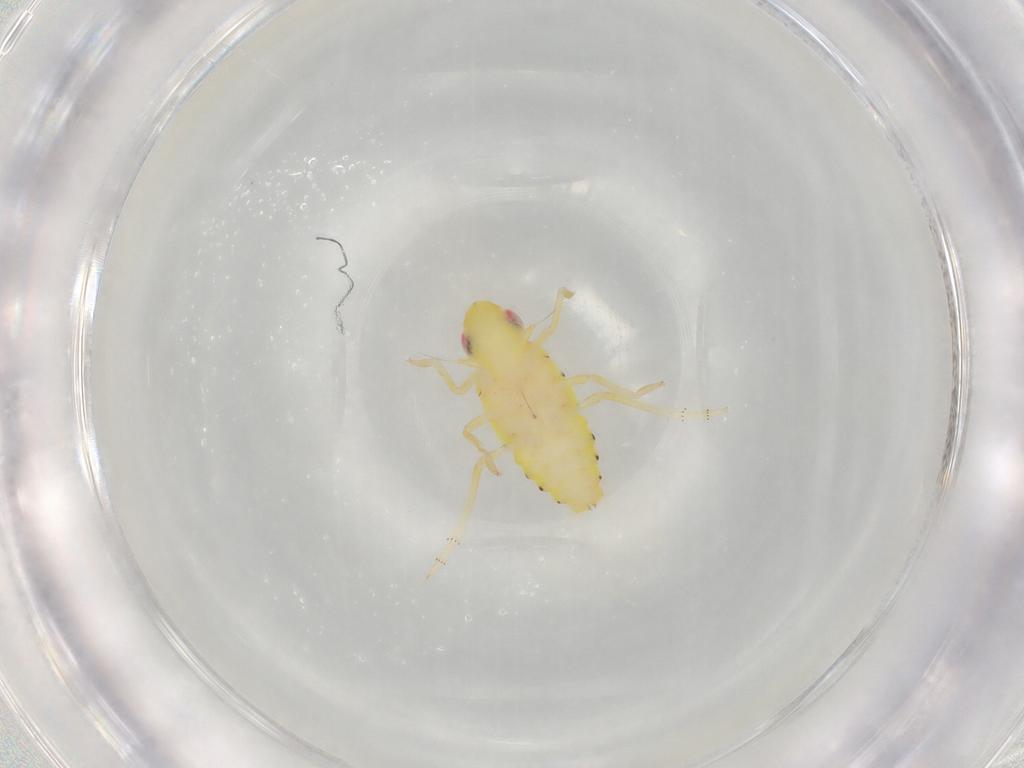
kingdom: Animalia
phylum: Arthropoda
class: Insecta
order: Hemiptera
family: Tropiduchidae
